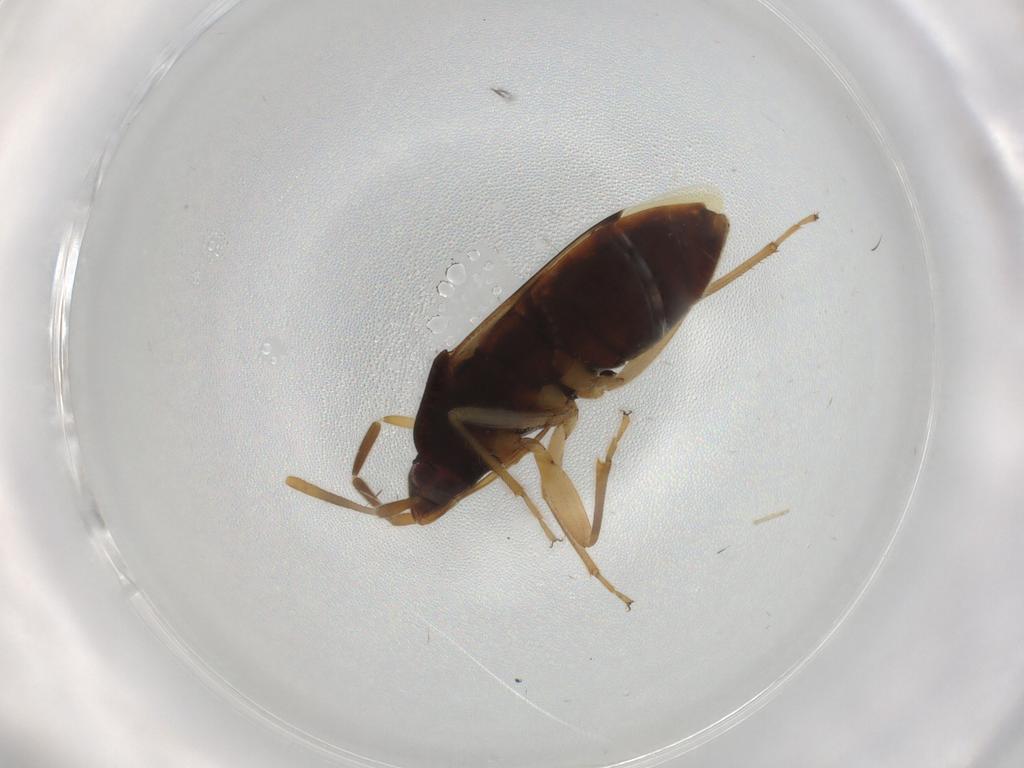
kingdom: Animalia
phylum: Arthropoda
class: Insecta
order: Hemiptera
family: Rhyparochromidae
